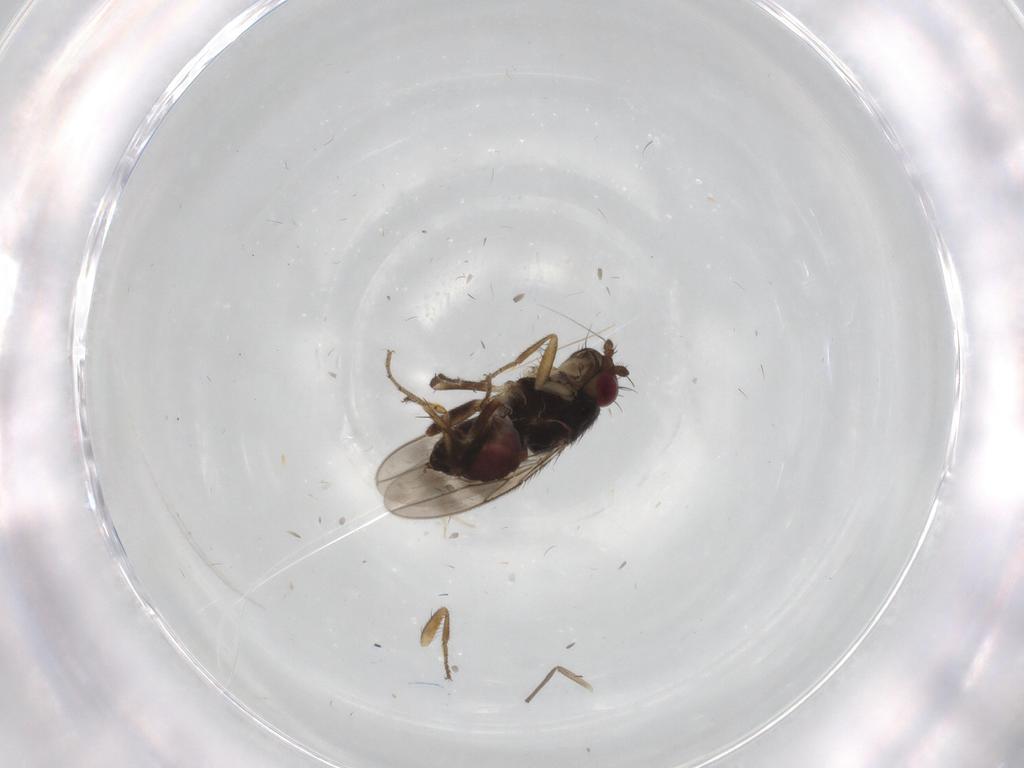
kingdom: Animalia
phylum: Arthropoda
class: Insecta
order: Diptera
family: Sphaeroceridae
